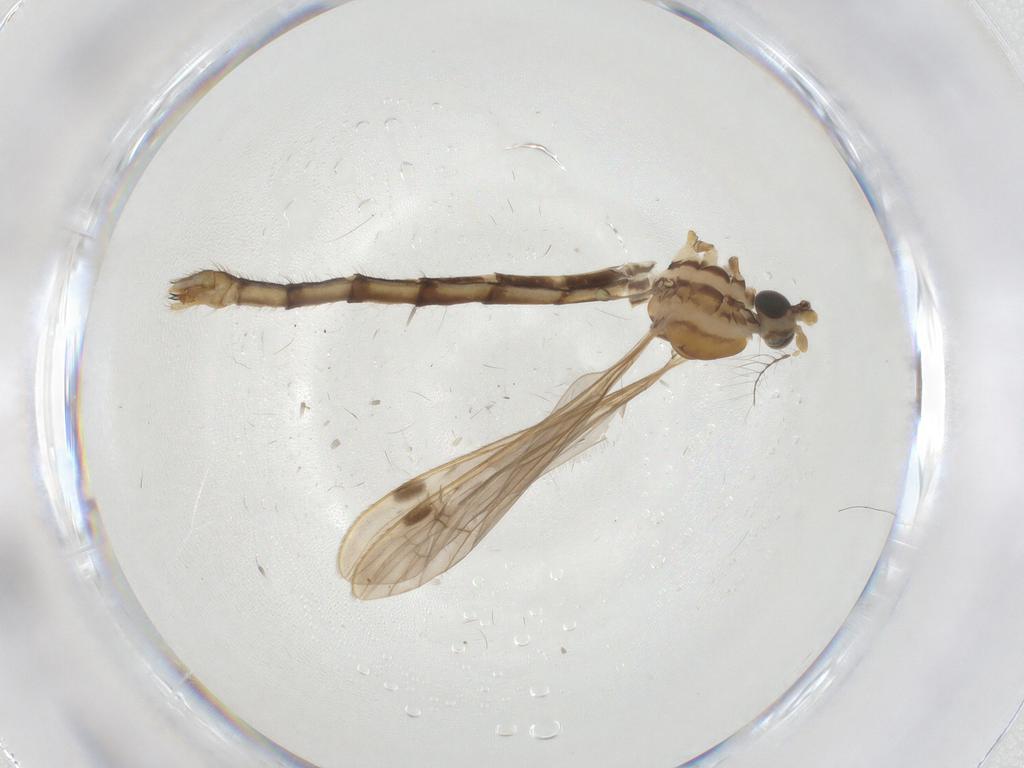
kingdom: Animalia
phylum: Arthropoda
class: Insecta
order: Diptera
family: Ceratopogonidae
